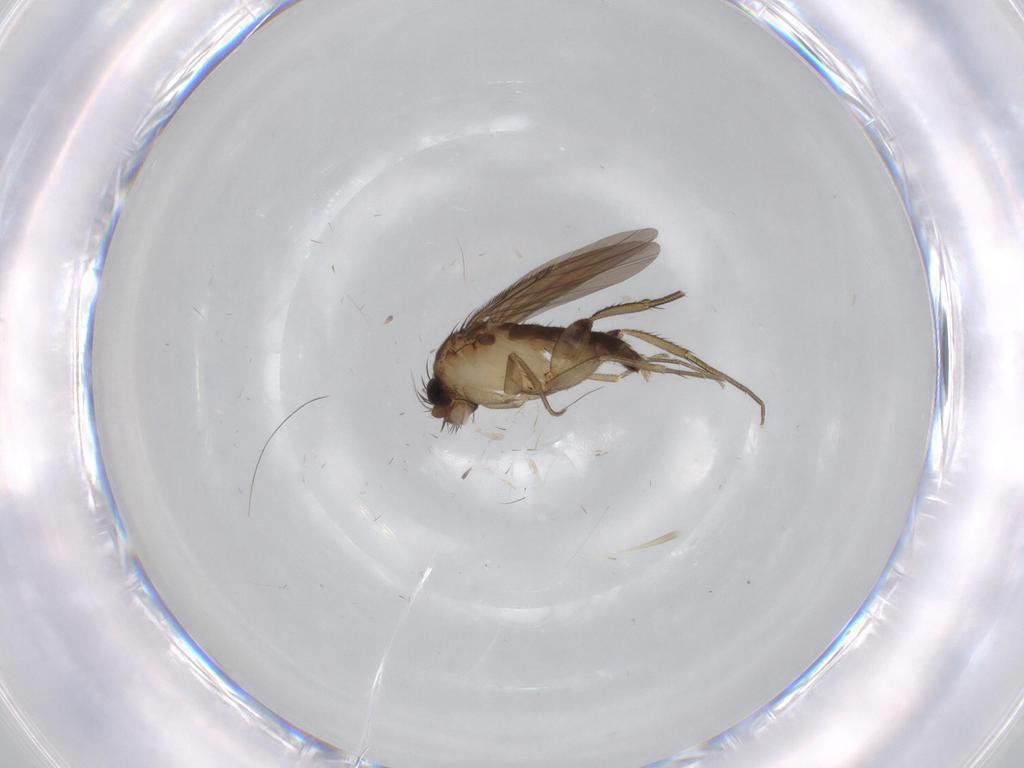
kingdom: Animalia
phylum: Arthropoda
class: Insecta
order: Diptera
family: Phoridae
